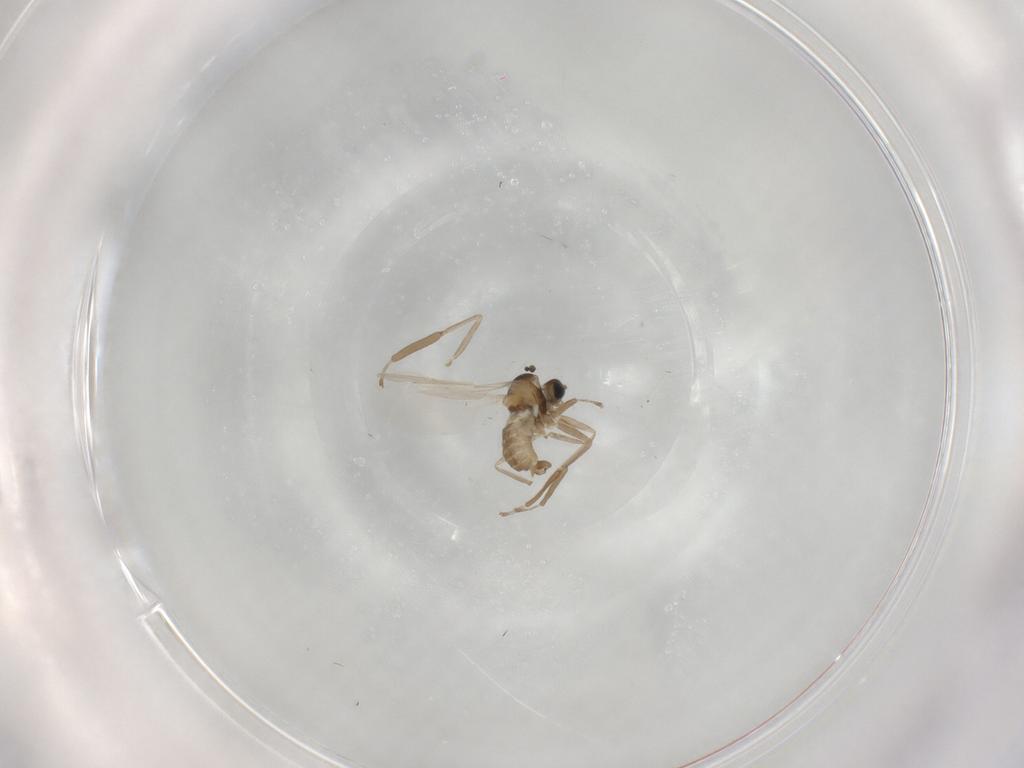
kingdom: Animalia
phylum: Arthropoda
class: Insecta
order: Diptera
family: Cecidomyiidae
